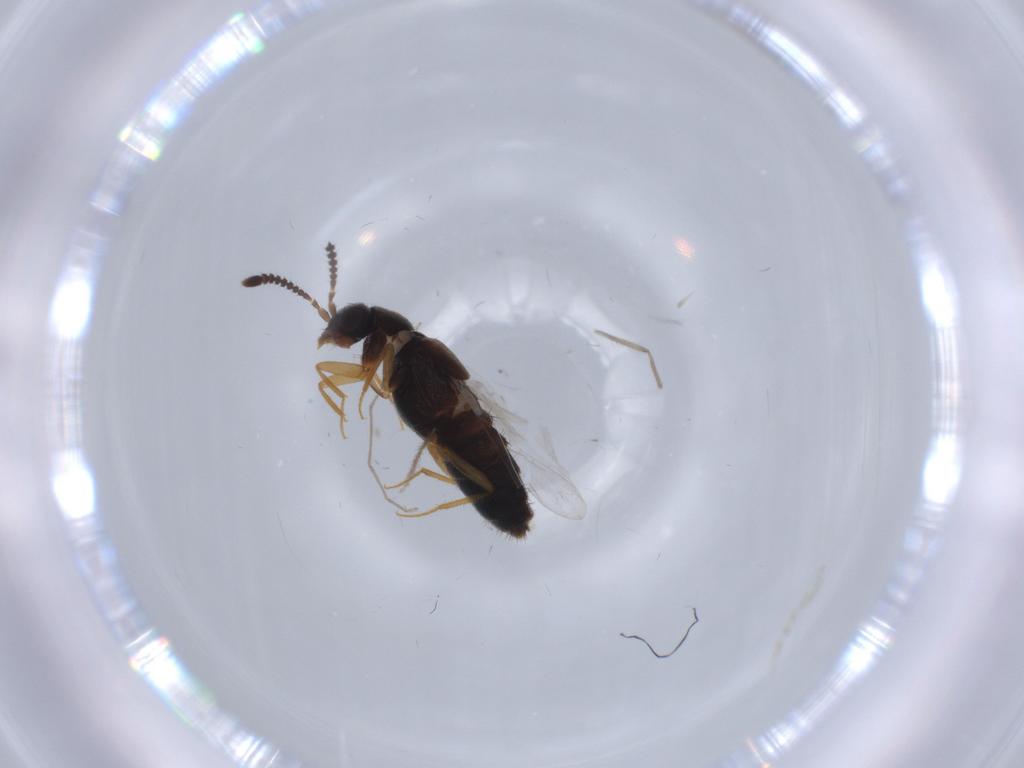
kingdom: Animalia
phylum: Arthropoda
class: Insecta
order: Coleoptera
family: Staphylinidae
